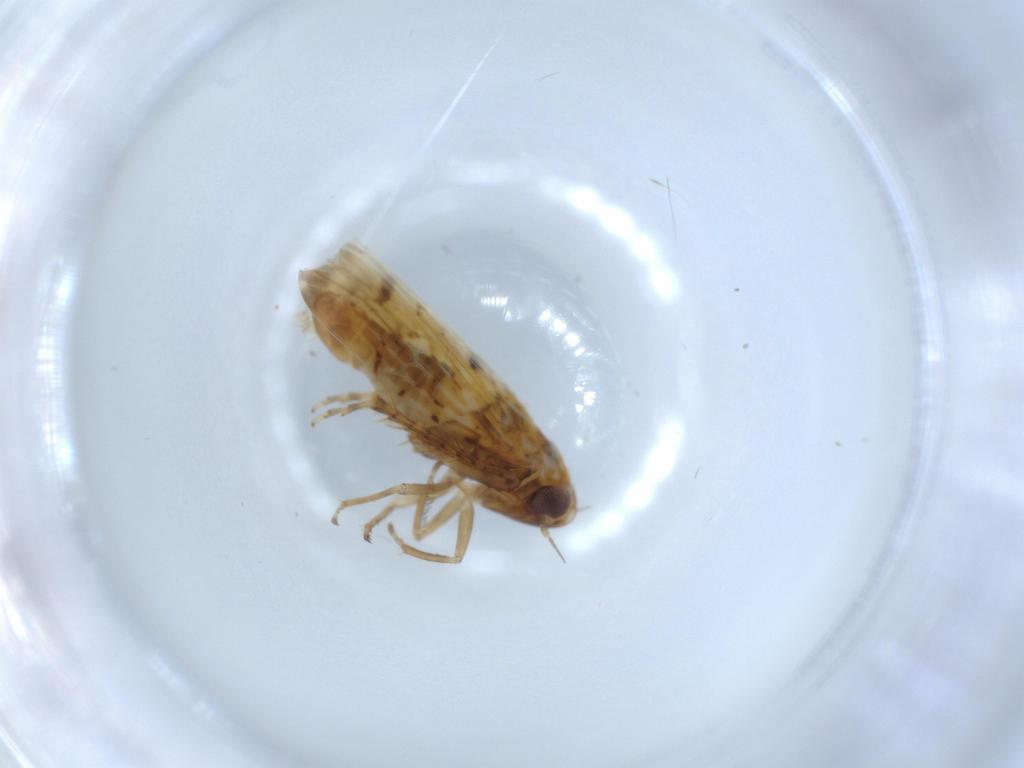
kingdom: Animalia
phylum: Arthropoda
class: Insecta
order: Hemiptera
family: Cicadellidae
